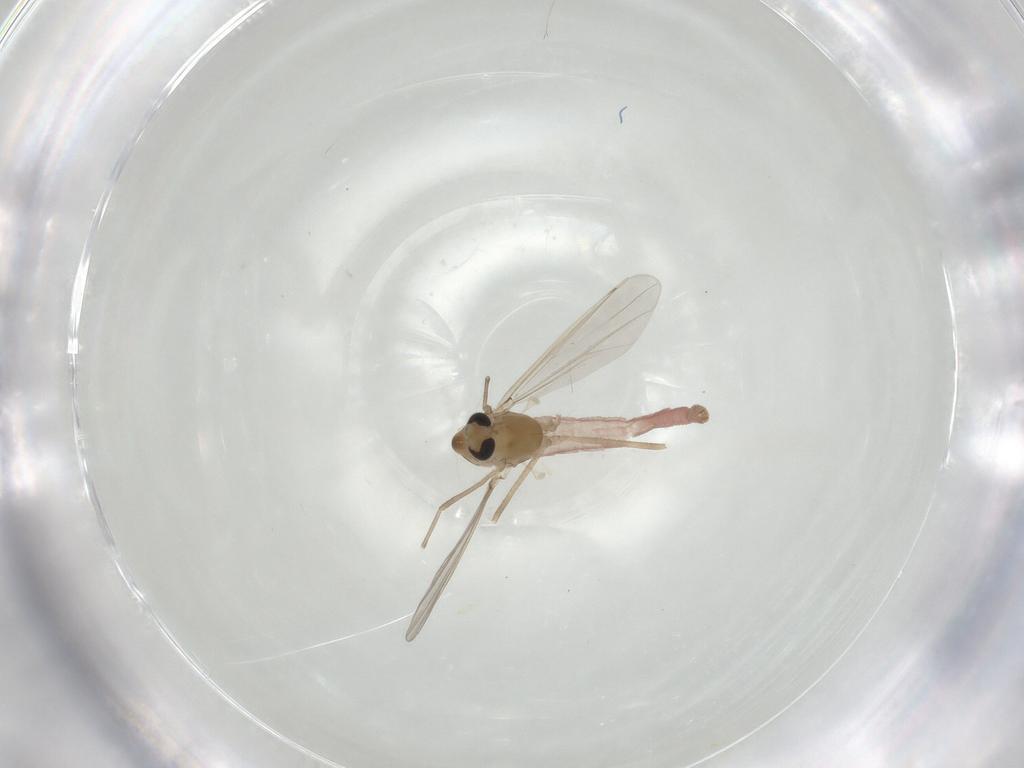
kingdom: Animalia
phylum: Arthropoda
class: Insecta
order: Diptera
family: Chironomidae
